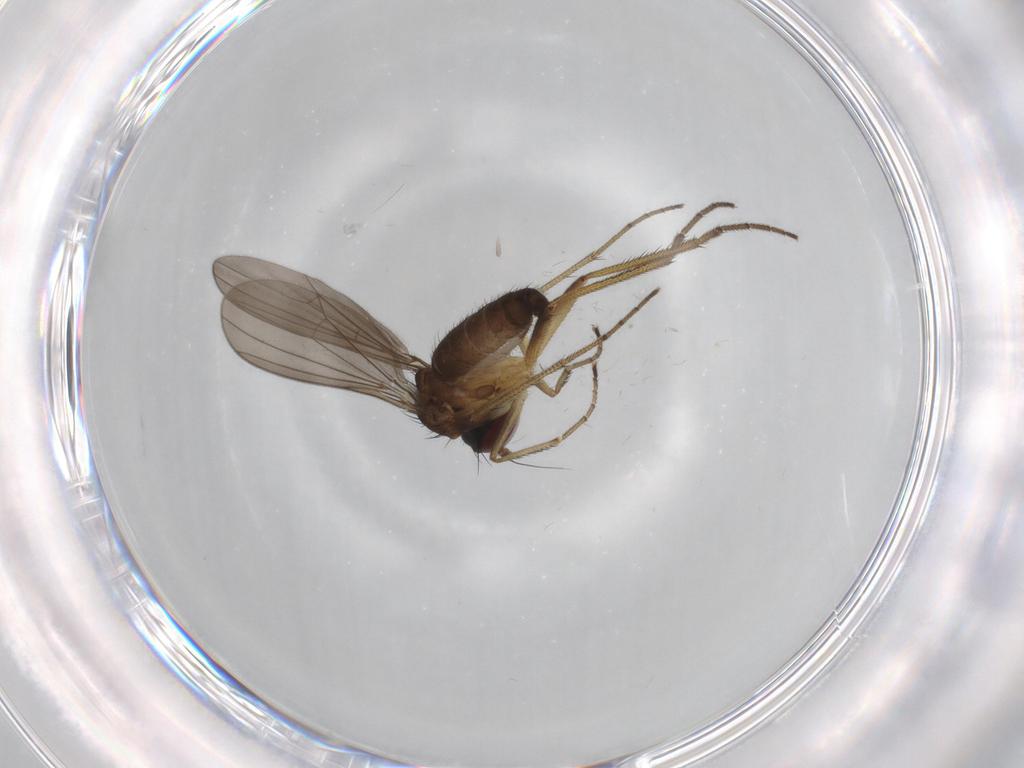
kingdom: Animalia
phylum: Arthropoda
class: Insecta
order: Diptera
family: Dolichopodidae
